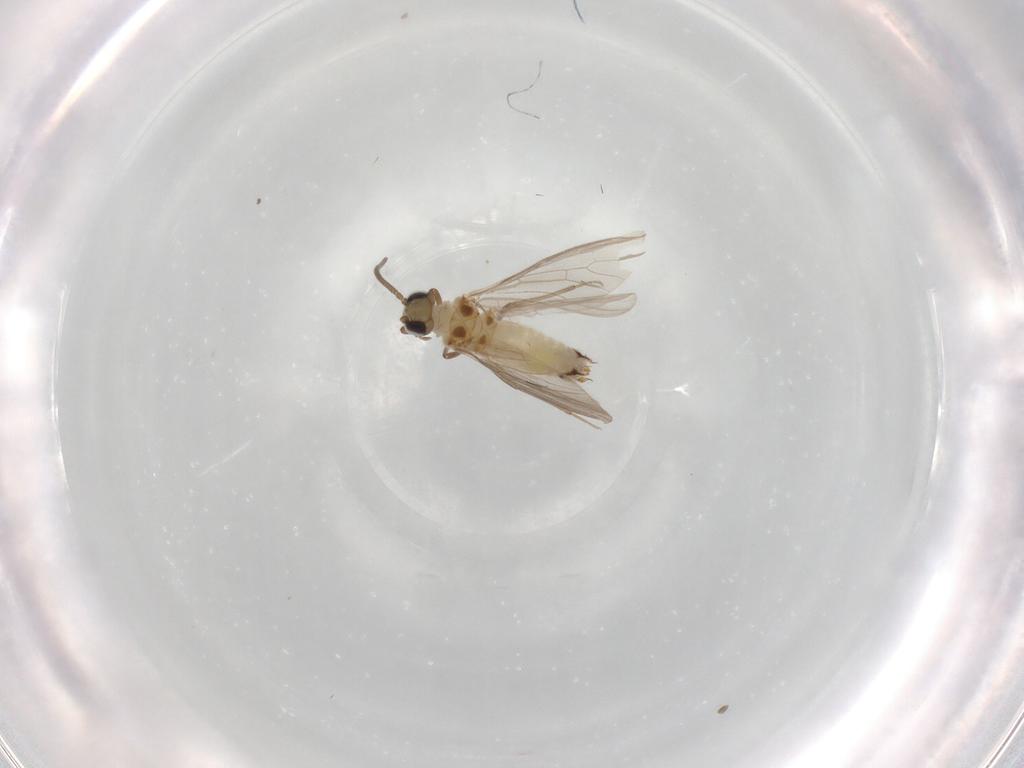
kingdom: Animalia
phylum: Arthropoda
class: Insecta
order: Neuroptera
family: Coniopterygidae
